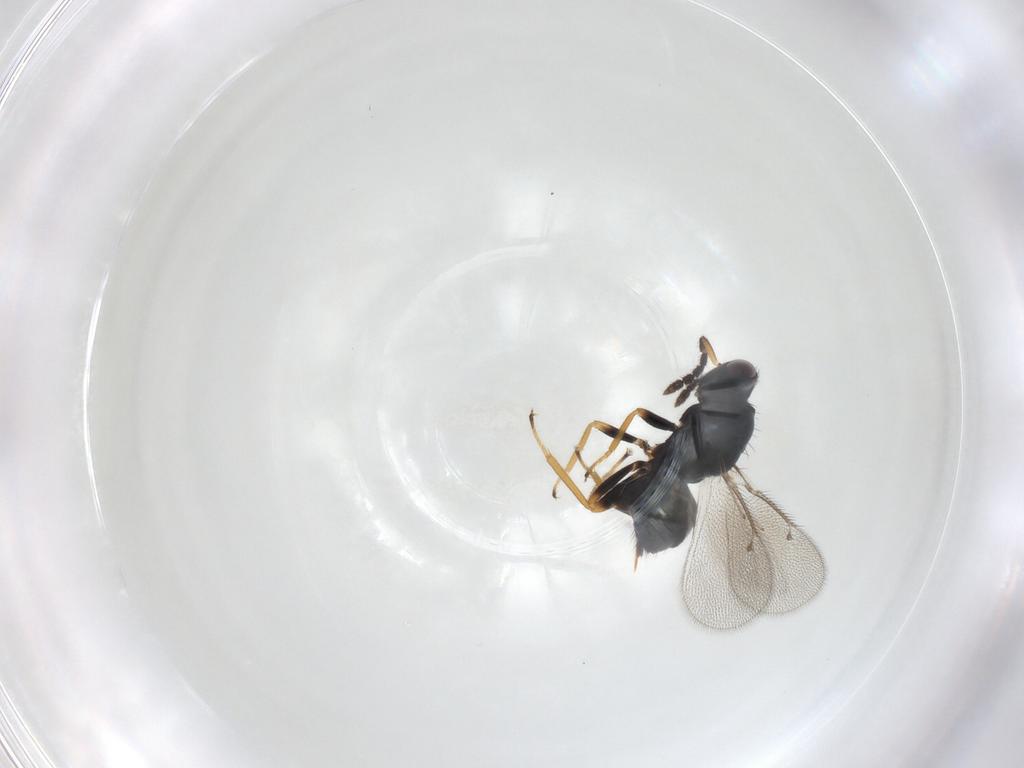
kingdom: Animalia
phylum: Arthropoda
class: Insecta
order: Hymenoptera
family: Eulophidae
